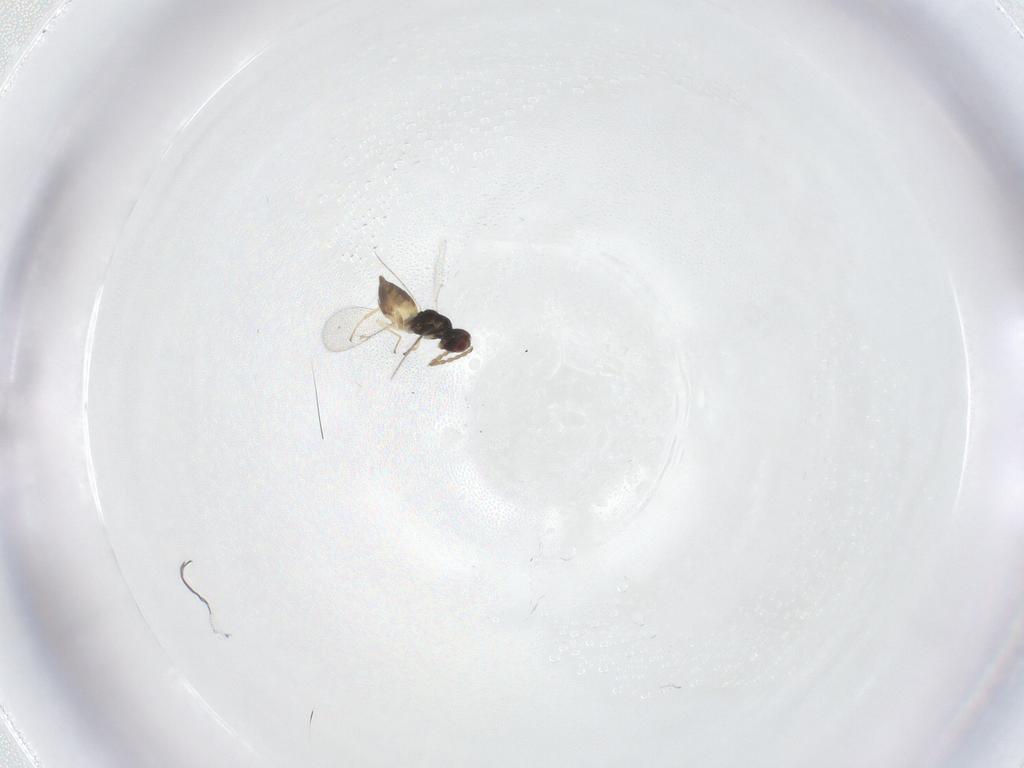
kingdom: Animalia
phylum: Arthropoda
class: Insecta
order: Hymenoptera
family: Eulophidae
